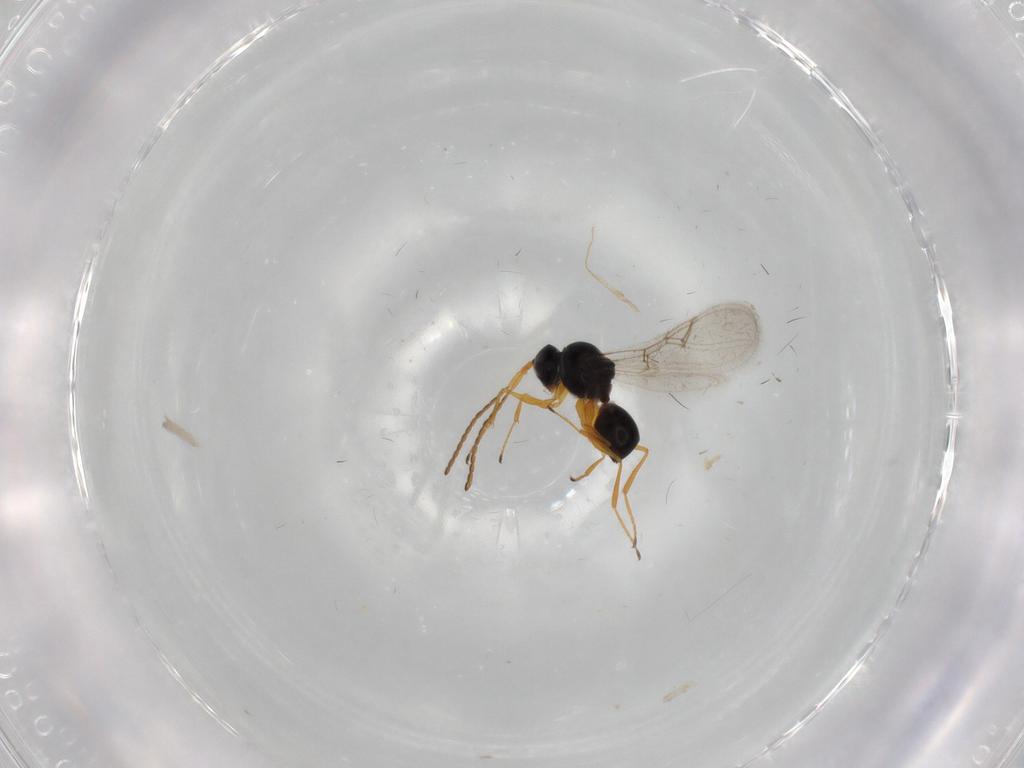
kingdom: Animalia
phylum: Arthropoda
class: Insecta
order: Hymenoptera
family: Figitidae
